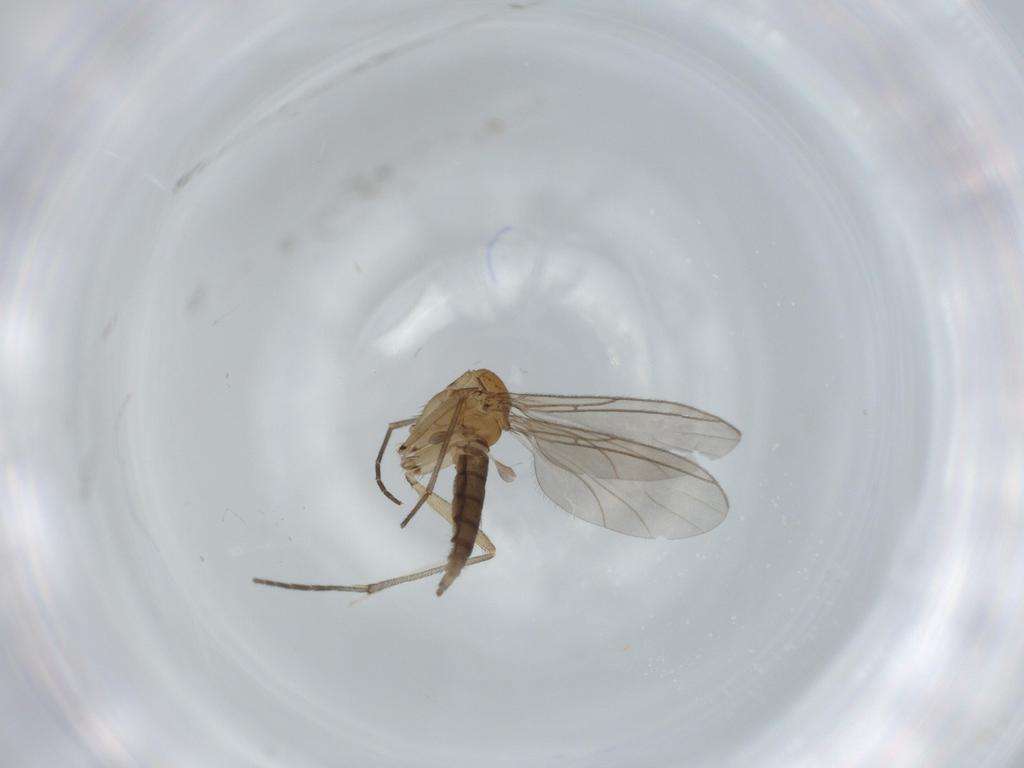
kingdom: Animalia
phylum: Arthropoda
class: Insecta
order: Diptera
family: Sciaridae
